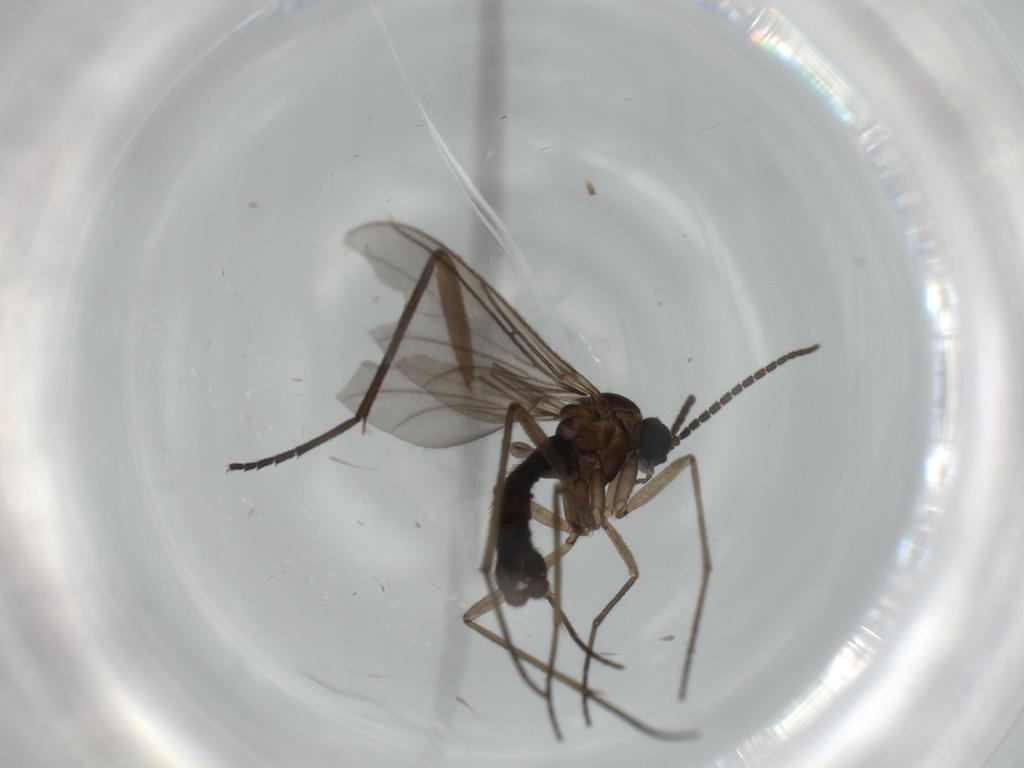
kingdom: Animalia
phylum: Arthropoda
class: Insecta
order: Diptera
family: Sciaridae
